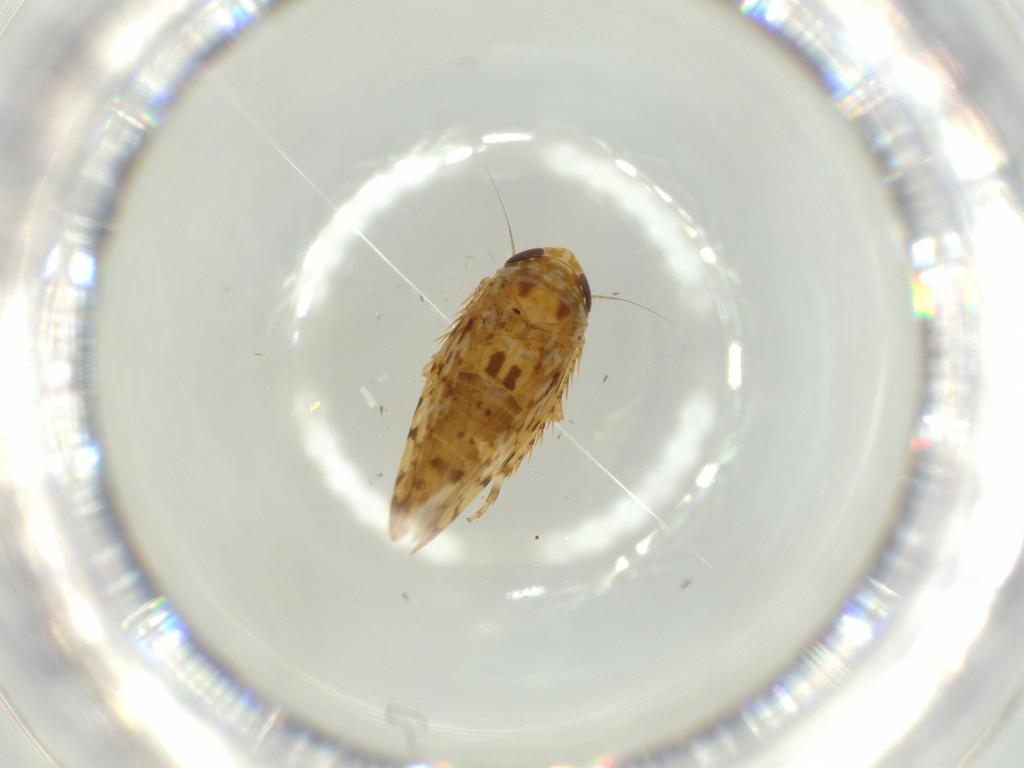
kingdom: Animalia
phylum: Arthropoda
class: Insecta
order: Hemiptera
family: Cicadellidae
